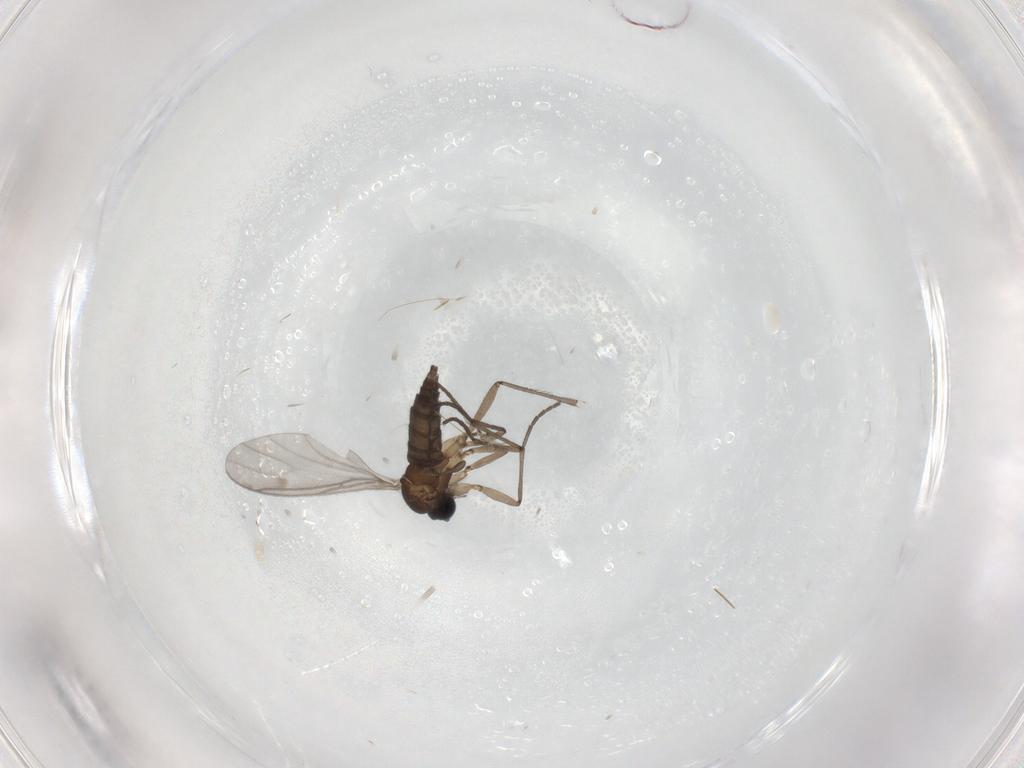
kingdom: Animalia
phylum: Arthropoda
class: Insecta
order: Diptera
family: Sciaridae
